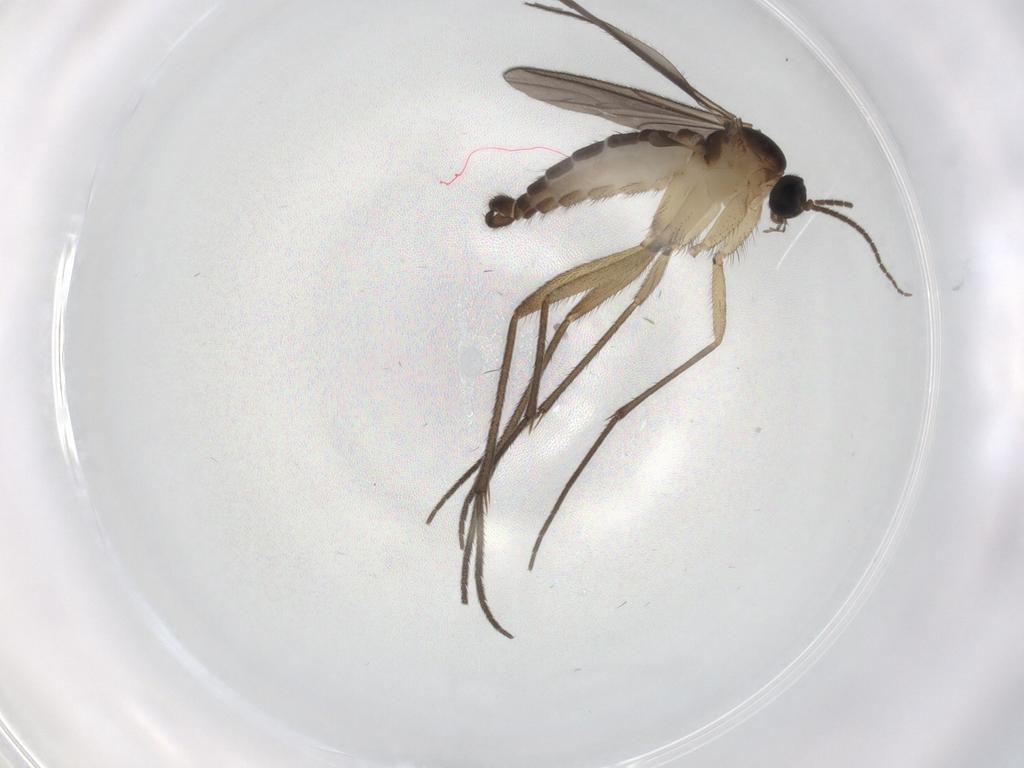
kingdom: Animalia
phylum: Arthropoda
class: Insecta
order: Diptera
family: Sciaridae
